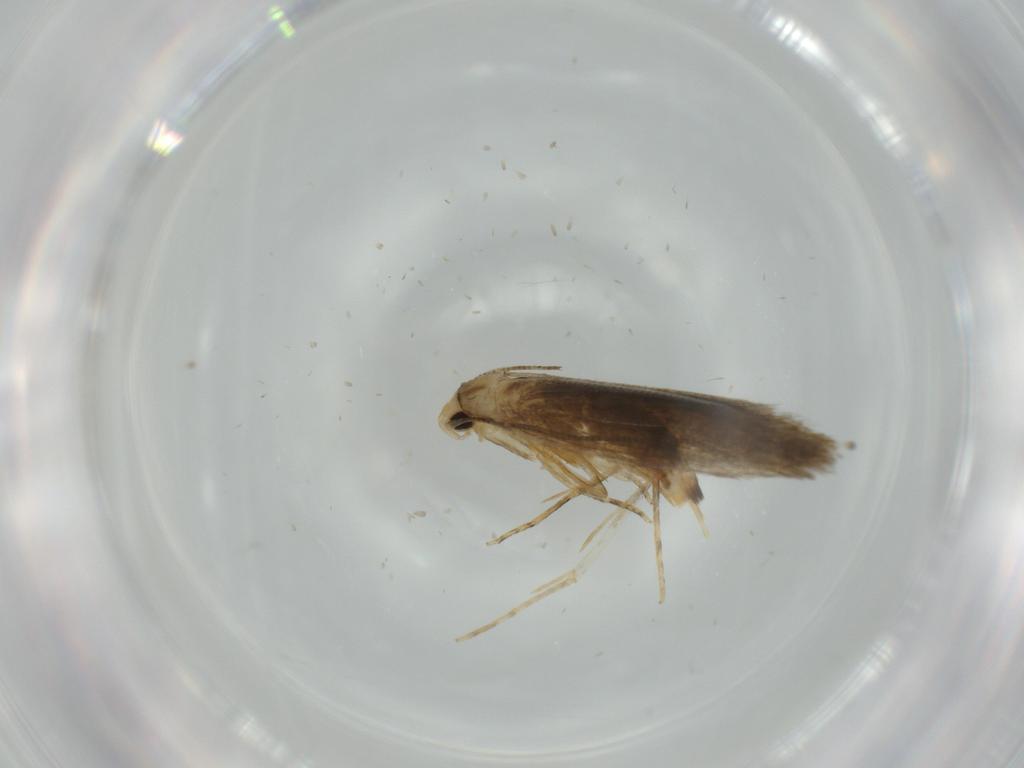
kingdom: Animalia
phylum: Arthropoda
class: Insecta
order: Lepidoptera
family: Tineidae
